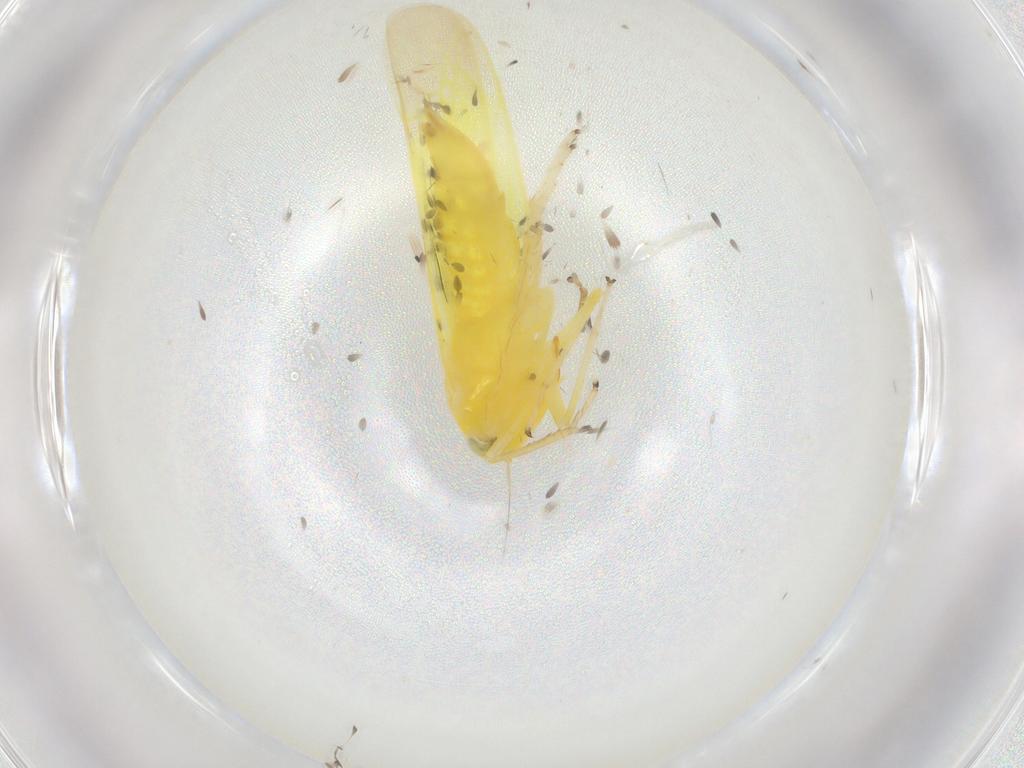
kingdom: Animalia
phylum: Arthropoda
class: Insecta
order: Hemiptera
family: Cicadellidae
